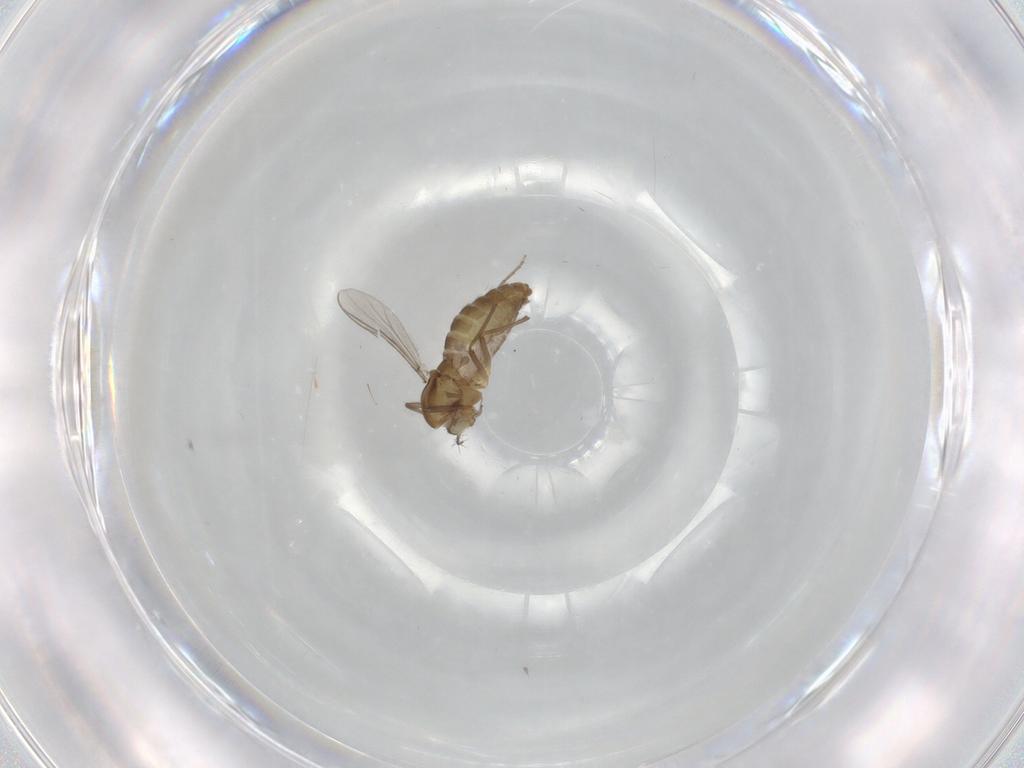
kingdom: Animalia
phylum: Arthropoda
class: Insecta
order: Diptera
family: Chironomidae
